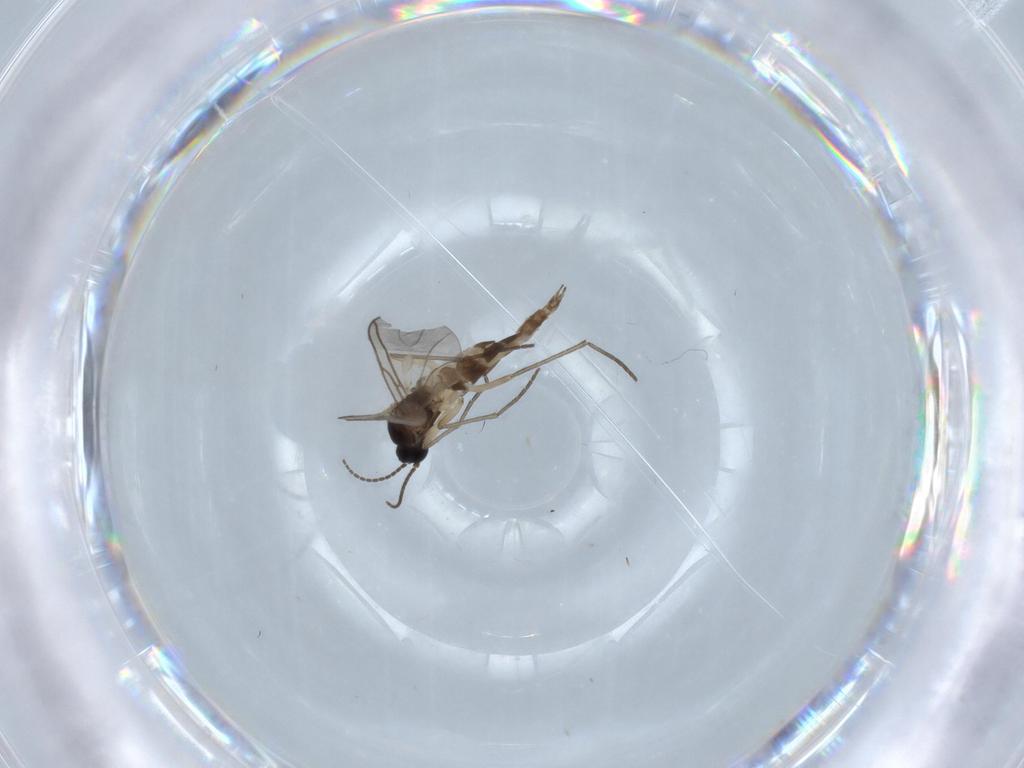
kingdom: Animalia
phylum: Arthropoda
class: Insecta
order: Diptera
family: Sciaridae
